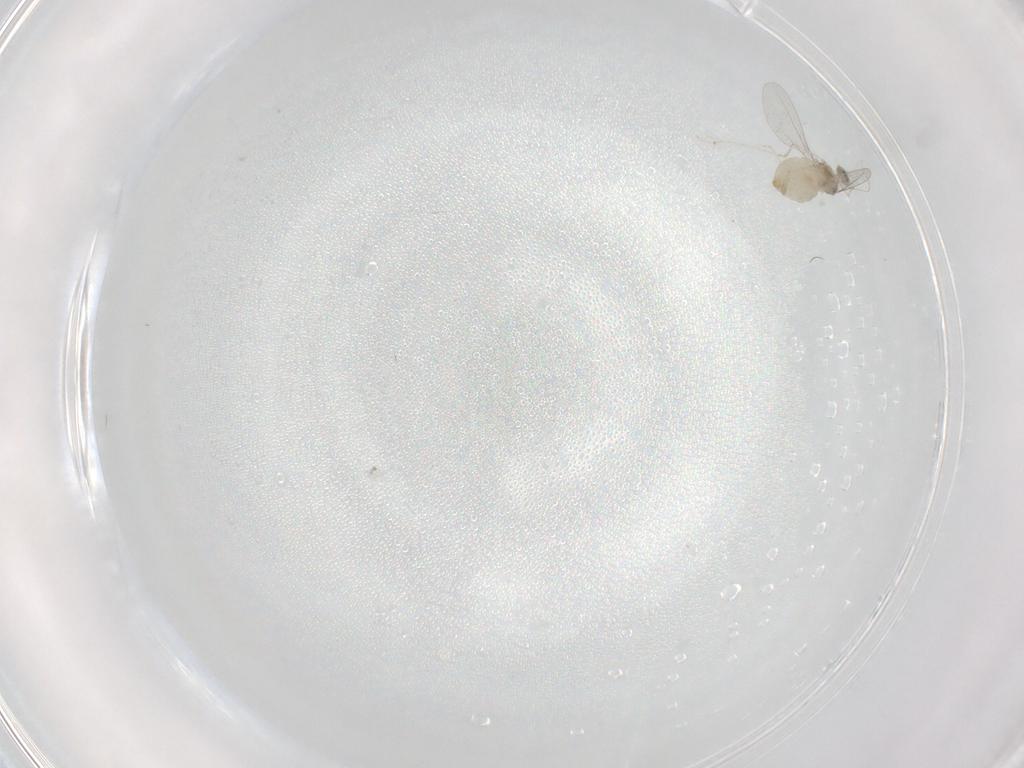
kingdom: Animalia
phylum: Arthropoda
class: Insecta
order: Diptera
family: Cecidomyiidae
